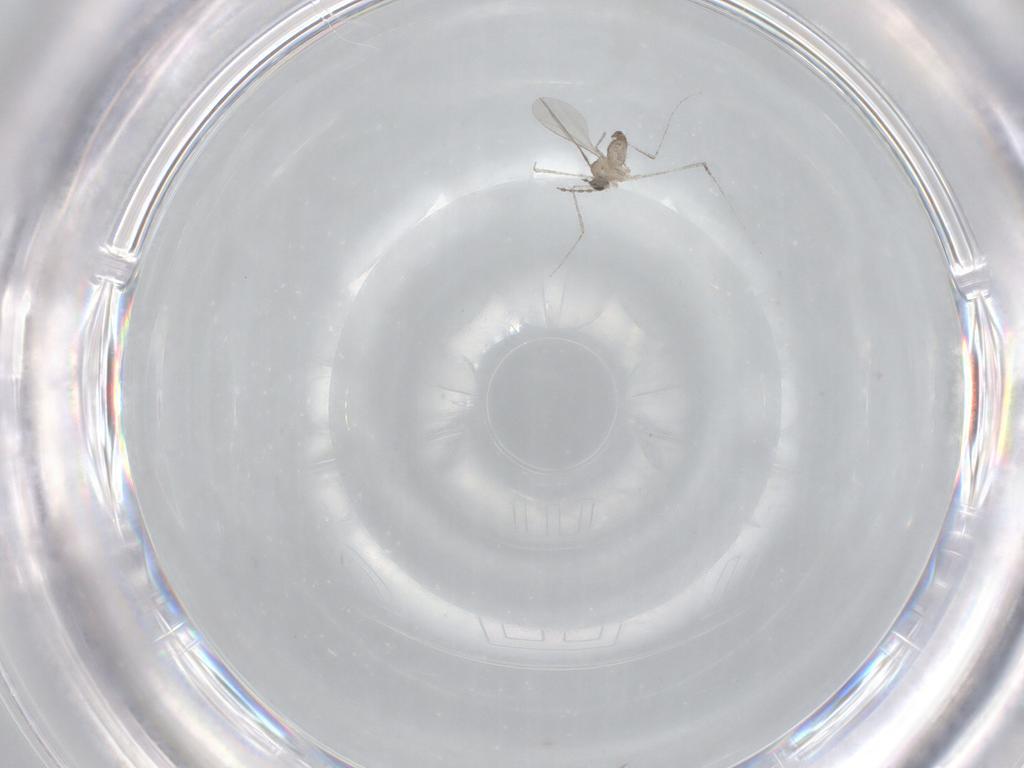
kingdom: Animalia
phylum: Arthropoda
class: Insecta
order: Diptera
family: Cecidomyiidae
